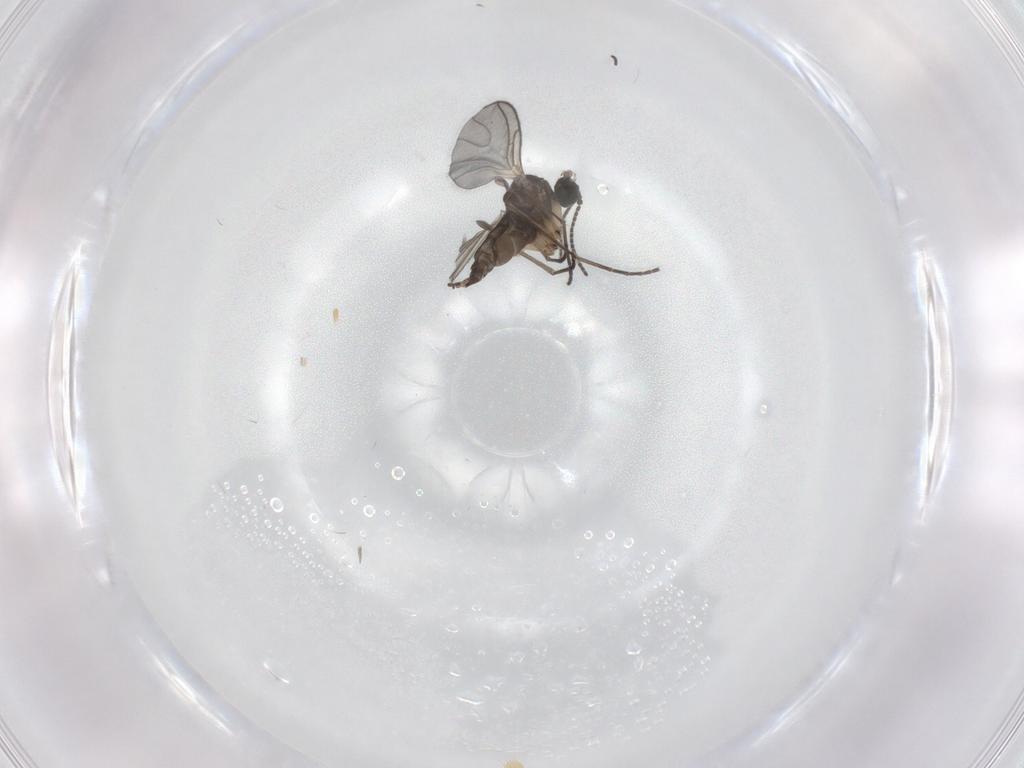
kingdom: Animalia
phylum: Arthropoda
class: Insecta
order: Diptera
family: Sciaridae
